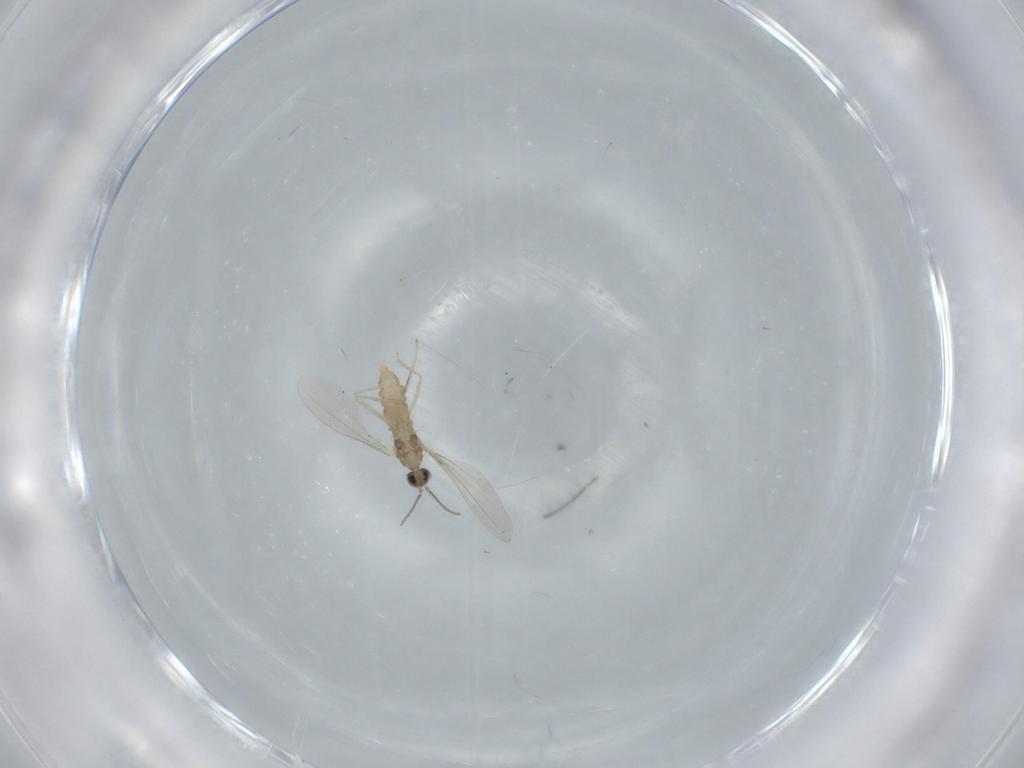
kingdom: Animalia
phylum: Arthropoda
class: Insecta
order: Diptera
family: Cecidomyiidae
